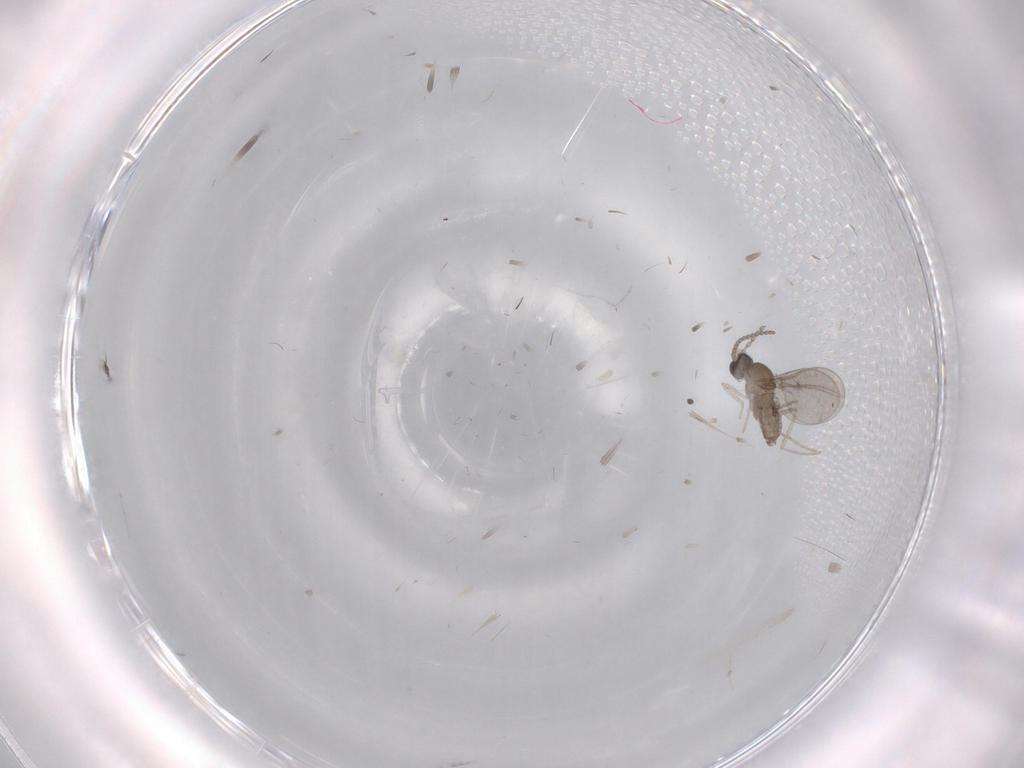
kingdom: Animalia
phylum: Arthropoda
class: Insecta
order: Diptera
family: Cecidomyiidae
